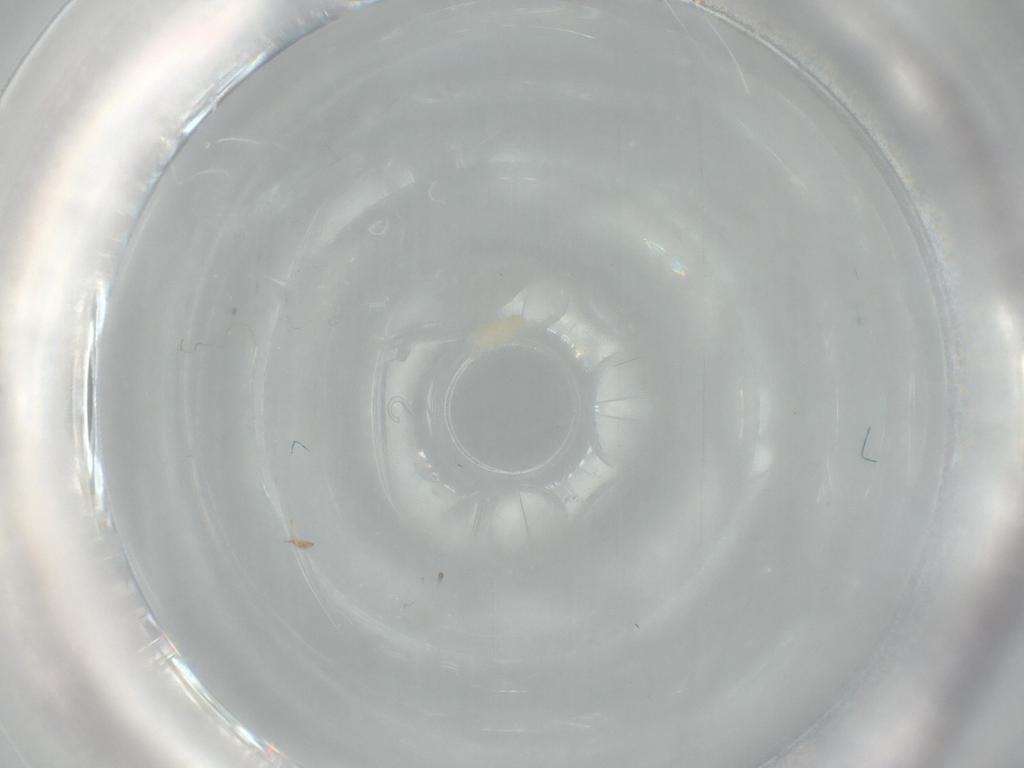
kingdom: Animalia
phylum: Arthropoda
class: Arachnida
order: Trombidiformes
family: Eupodidae
